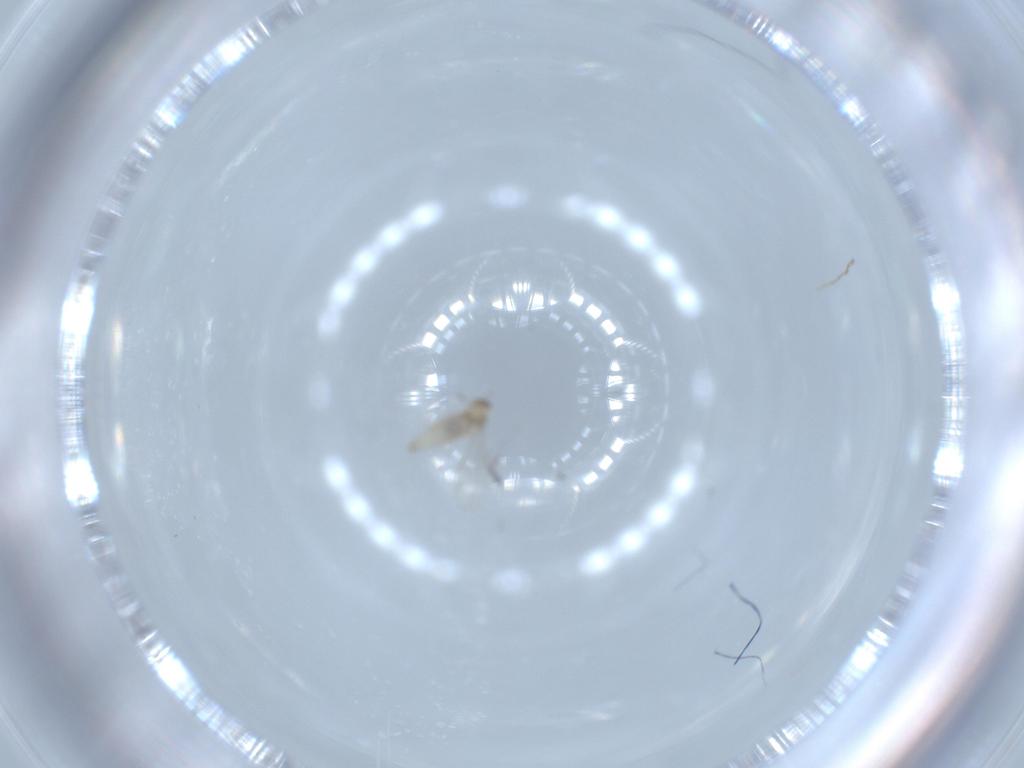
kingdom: Animalia
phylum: Arthropoda
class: Insecta
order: Diptera
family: Cecidomyiidae
